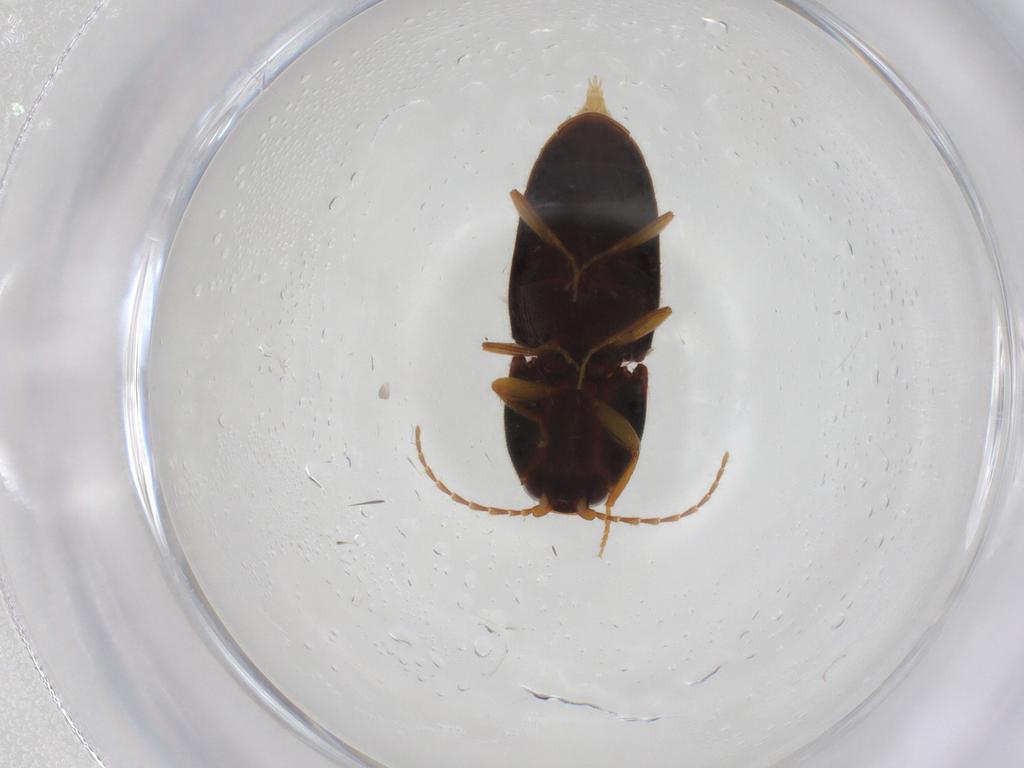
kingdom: Animalia
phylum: Arthropoda
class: Insecta
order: Coleoptera
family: Elateridae
